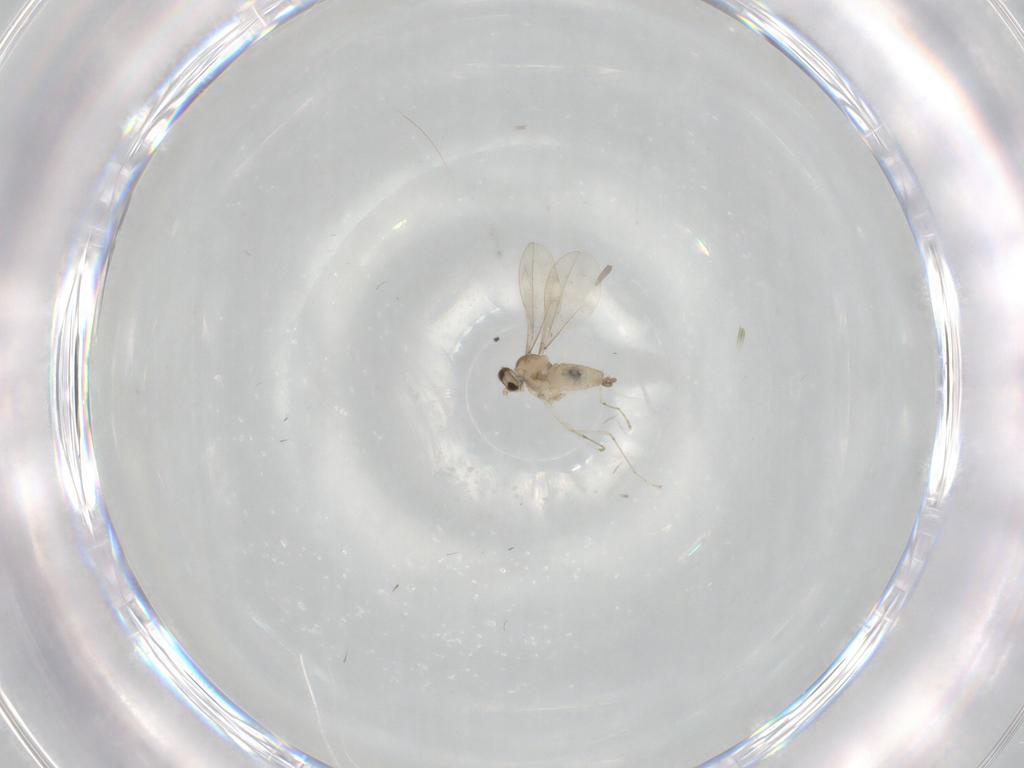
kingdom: Animalia
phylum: Arthropoda
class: Insecta
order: Diptera
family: Cecidomyiidae
